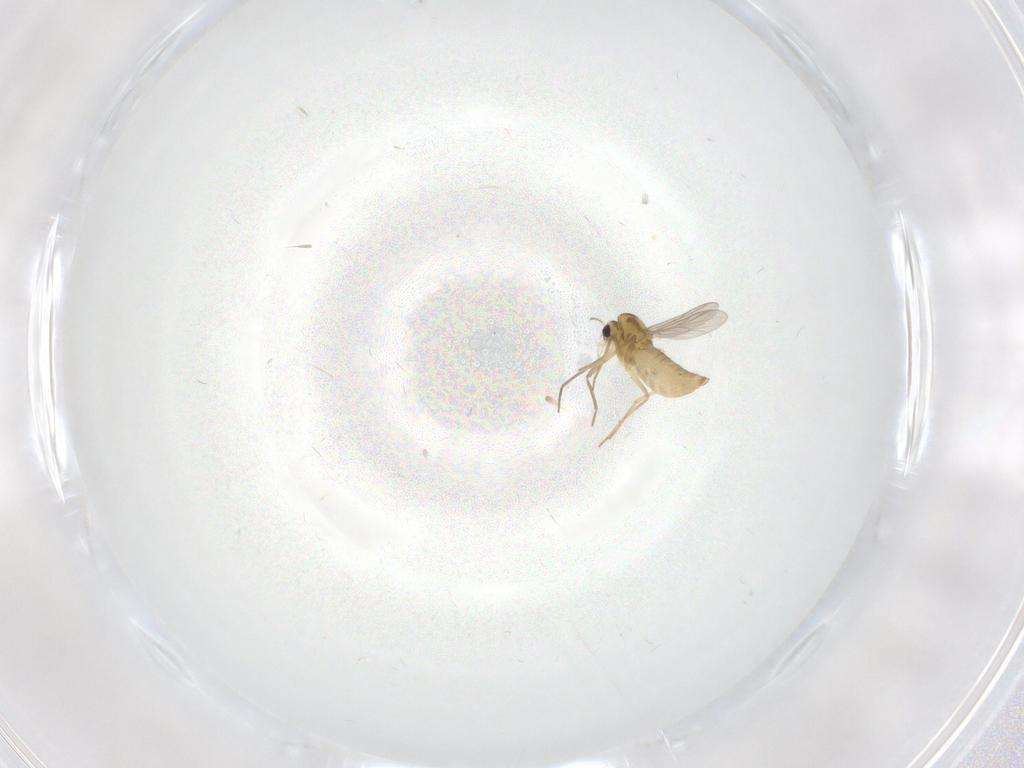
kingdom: Animalia
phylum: Arthropoda
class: Insecta
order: Diptera
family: Chironomidae
